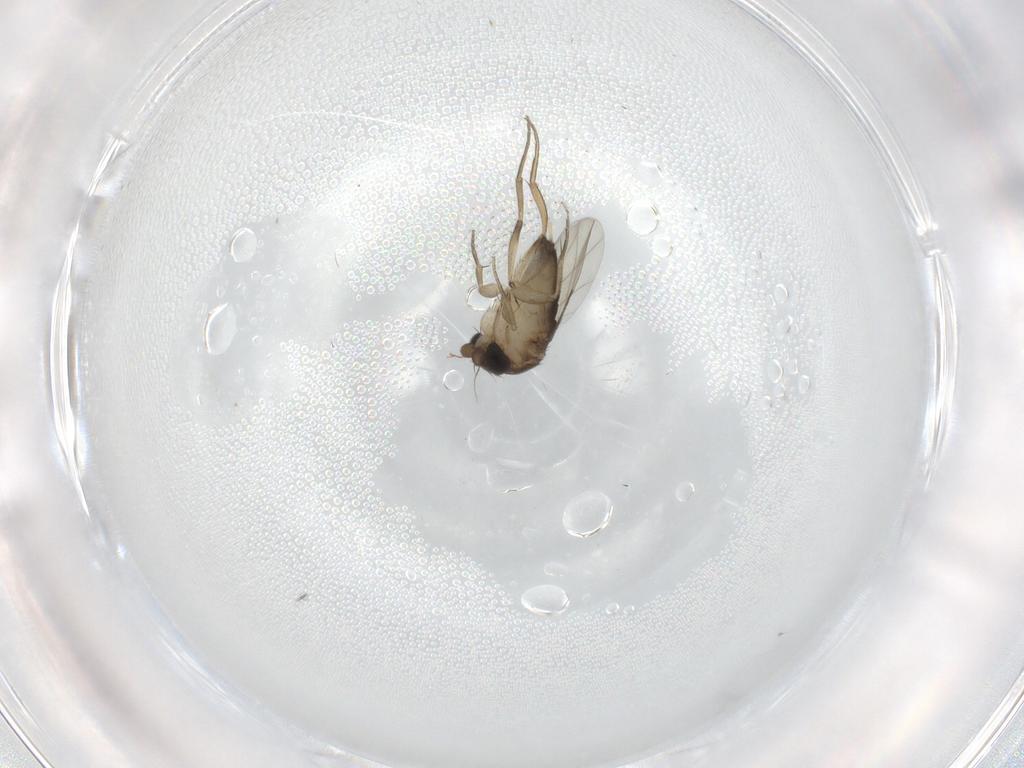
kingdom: Animalia
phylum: Arthropoda
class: Insecta
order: Diptera
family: Phoridae
